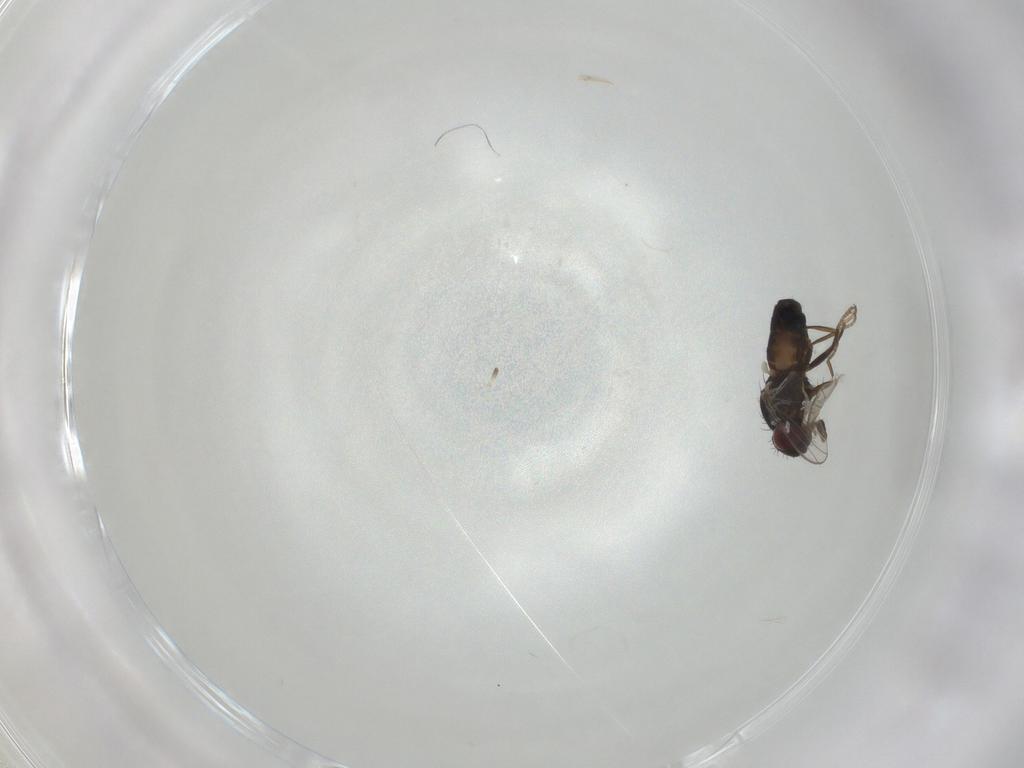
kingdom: Animalia
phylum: Arthropoda
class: Insecta
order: Diptera
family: Carnidae
